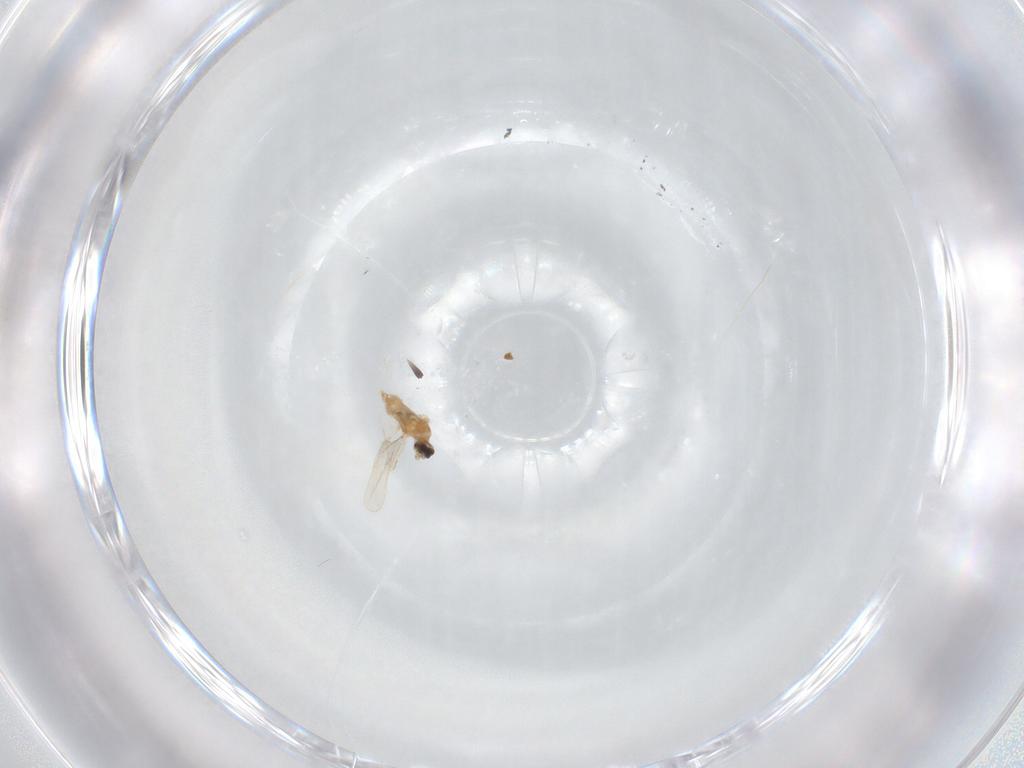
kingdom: Animalia
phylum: Arthropoda
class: Insecta
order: Diptera
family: Cecidomyiidae
